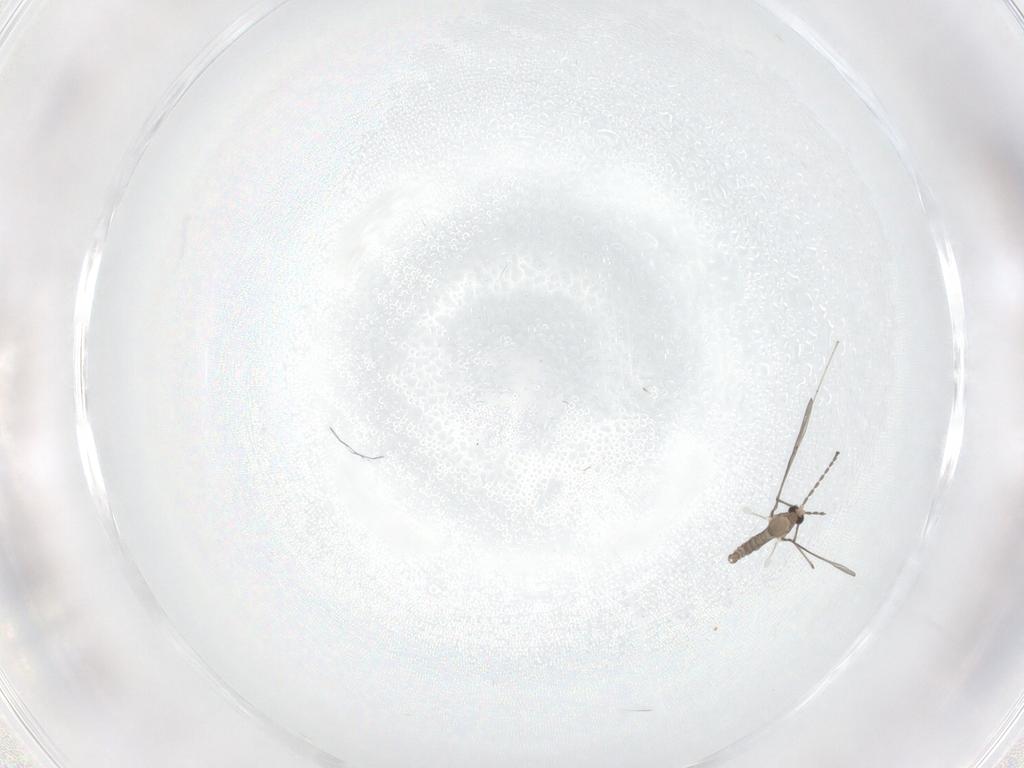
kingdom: Animalia
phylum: Arthropoda
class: Insecta
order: Diptera
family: Cecidomyiidae
